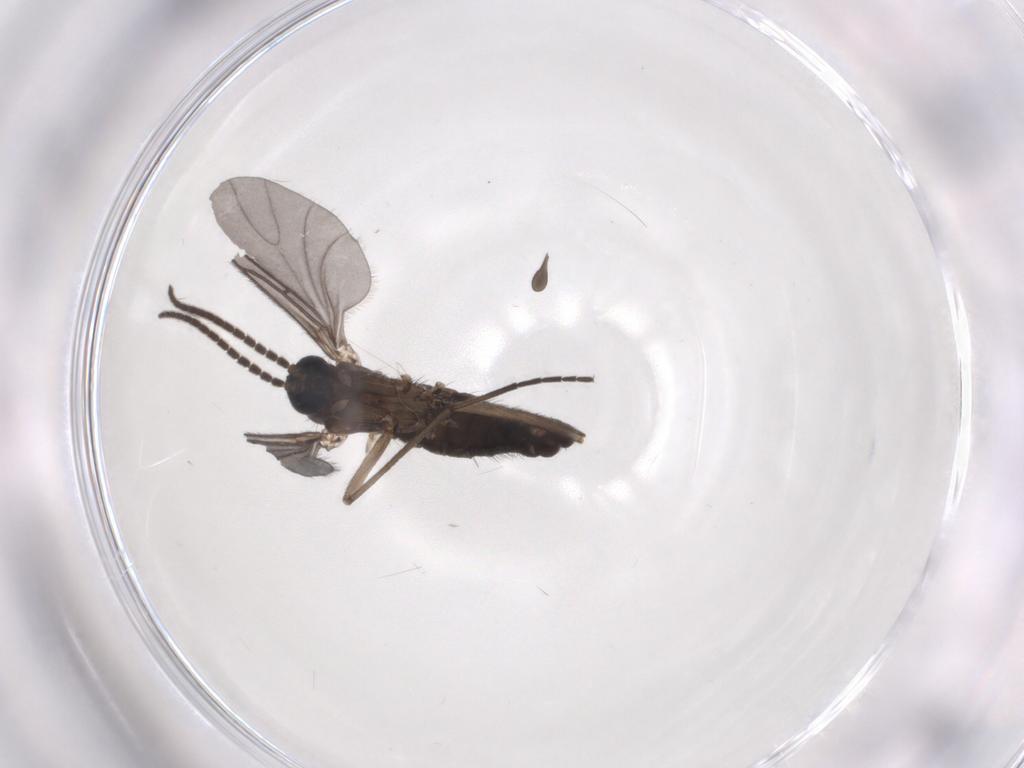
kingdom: Animalia
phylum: Arthropoda
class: Insecta
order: Diptera
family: Sciaridae
